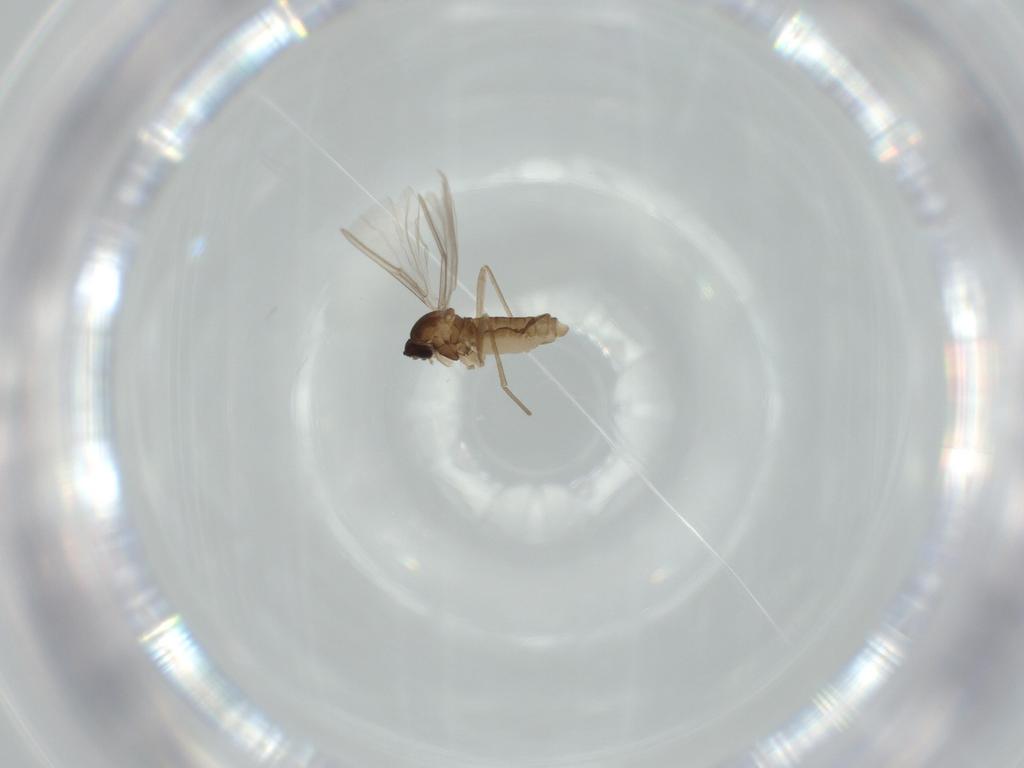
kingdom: Animalia
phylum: Arthropoda
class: Insecta
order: Diptera
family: Cecidomyiidae
